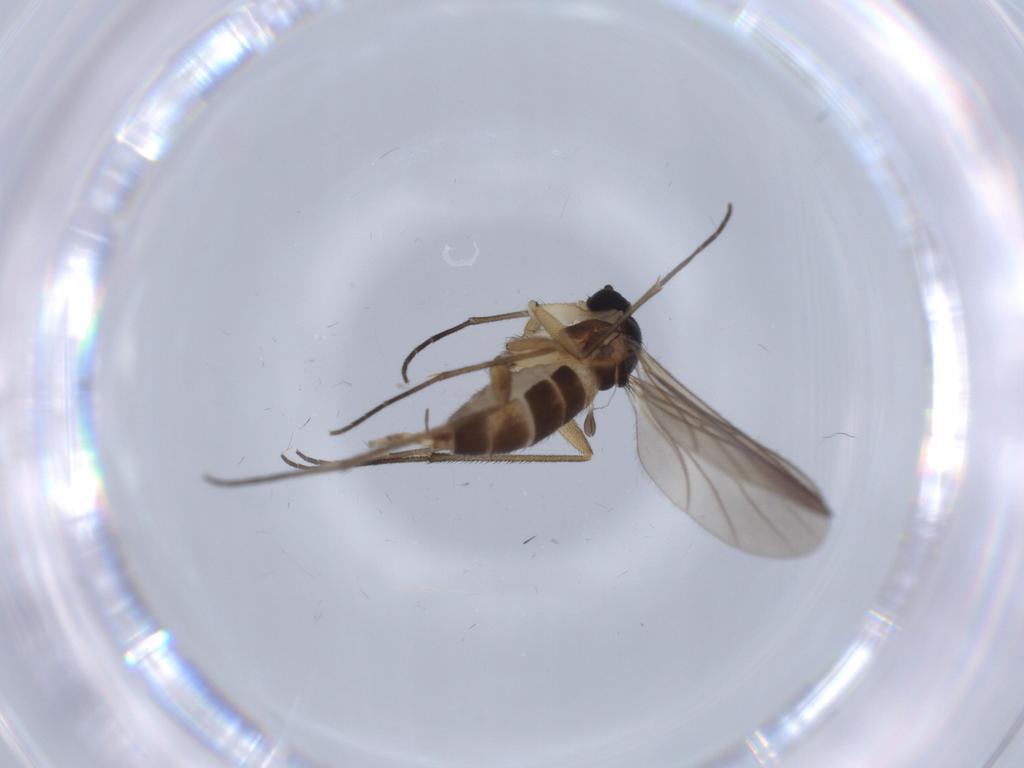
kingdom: Animalia
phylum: Arthropoda
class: Insecta
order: Diptera
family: Sciaridae
